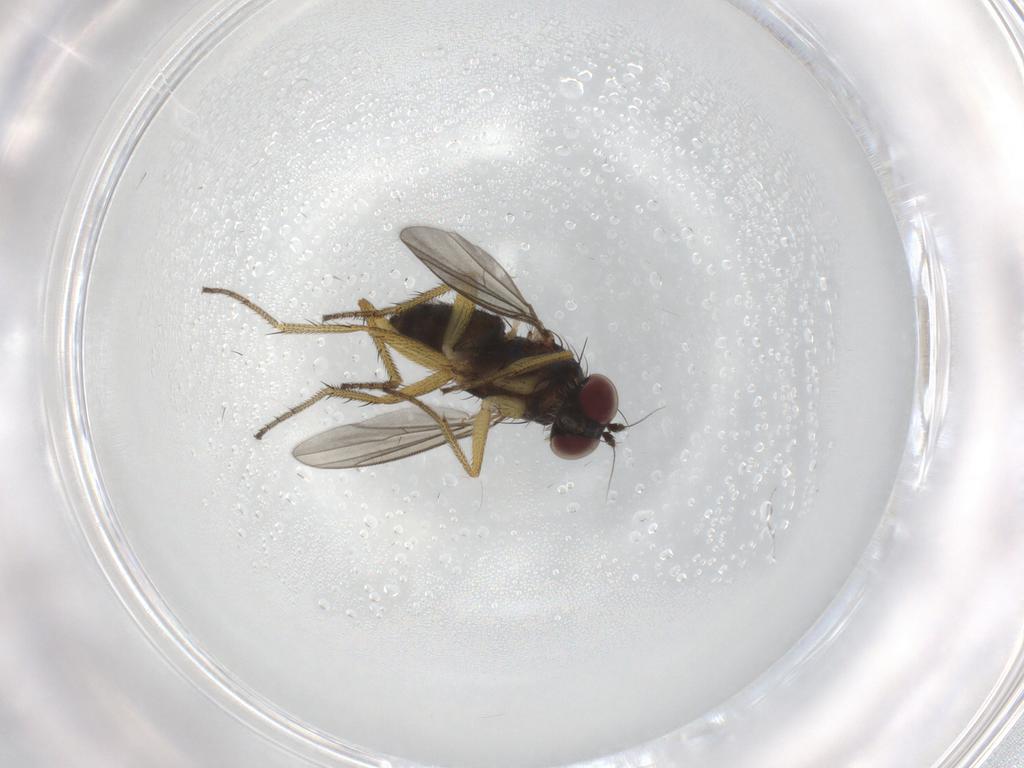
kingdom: Animalia
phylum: Arthropoda
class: Insecta
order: Diptera
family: Dolichopodidae
